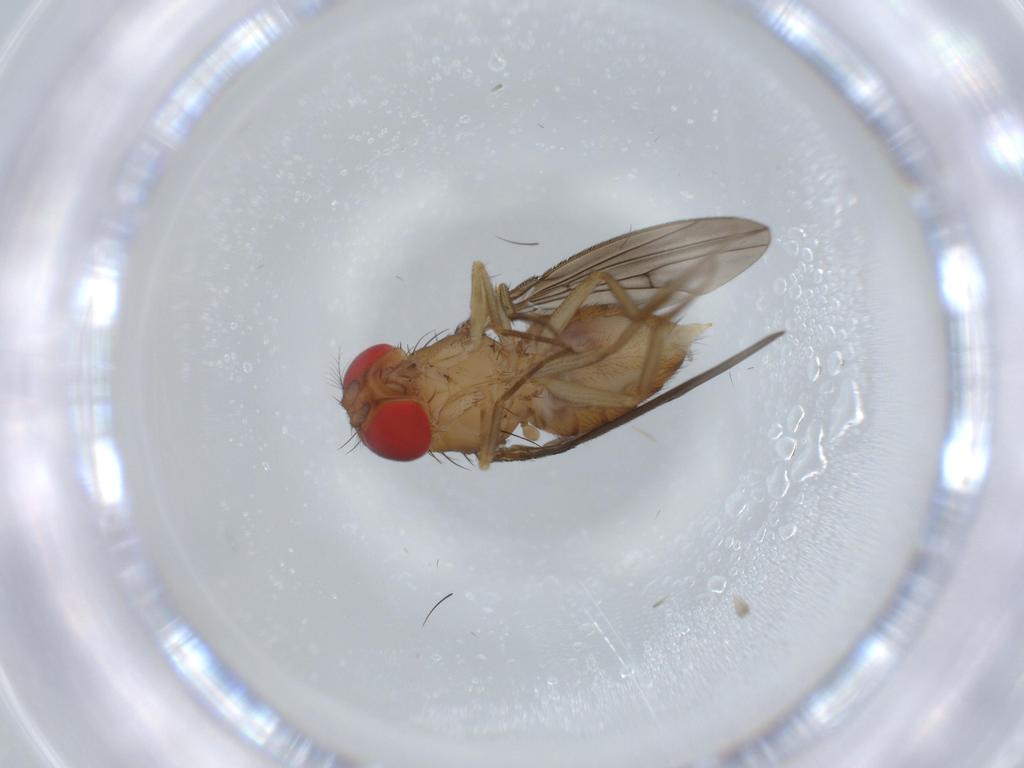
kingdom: Animalia
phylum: Arthropoda
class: Insecta
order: Diptera
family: Drosophilidae
